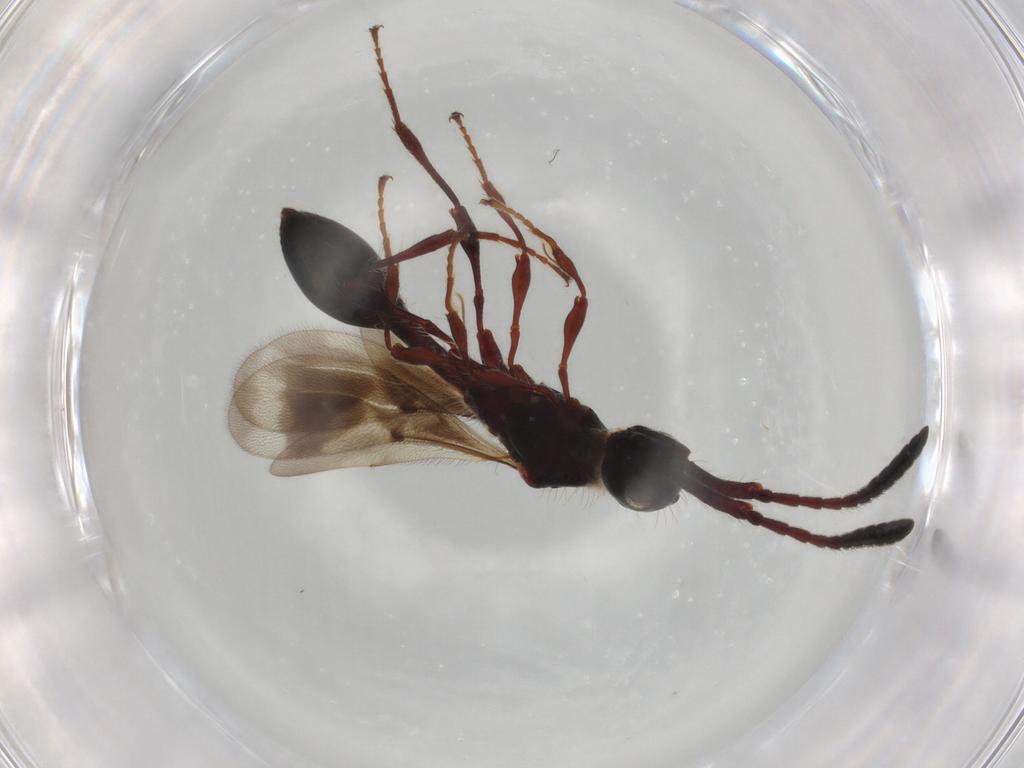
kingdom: Animalia
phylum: Arthropoda
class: Insecta
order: Hymenoptera
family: Diapriidae
